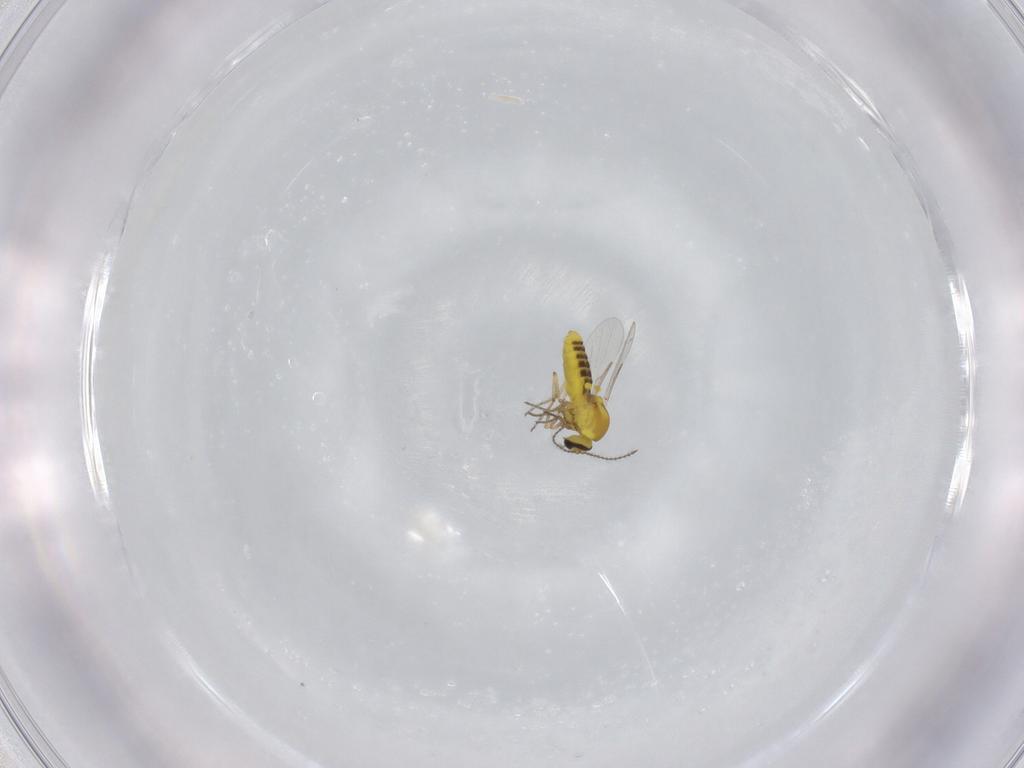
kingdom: Animalia
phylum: Arthropoda
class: Insecta
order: Diptera
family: Ceratopogonidae
